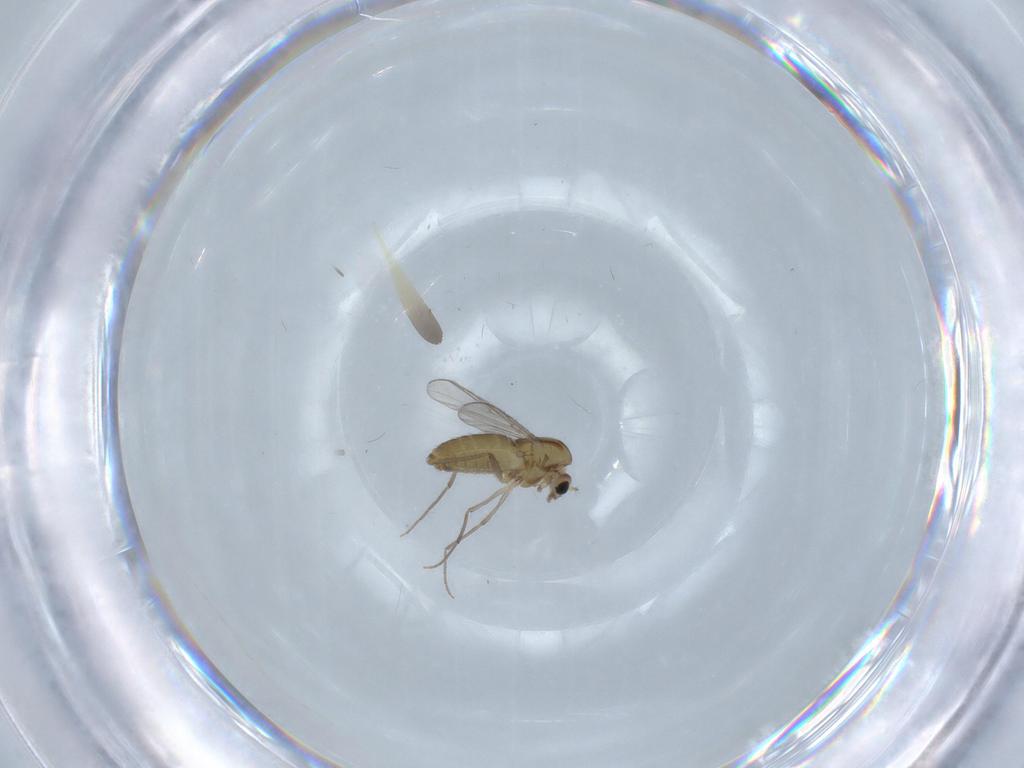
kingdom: Animalia
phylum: Arthropoda
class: Insecta
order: Diptera
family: Chironomidae
